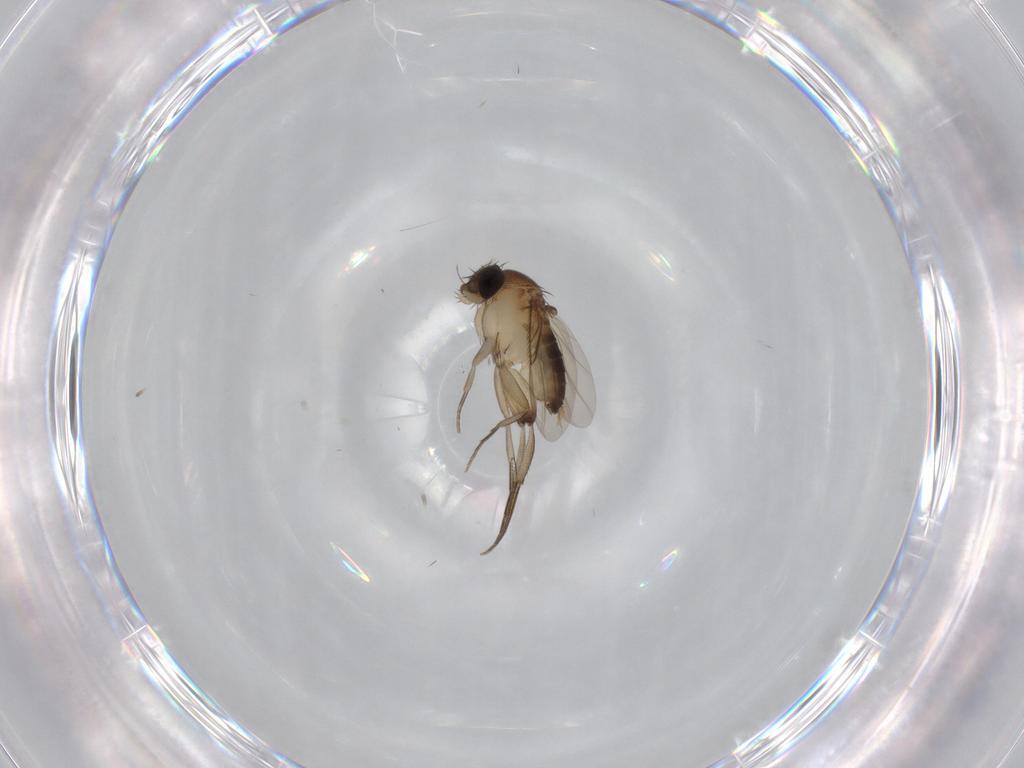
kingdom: Animalia
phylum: Arthropoda
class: Insecta
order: Diptera
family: Phoridae
